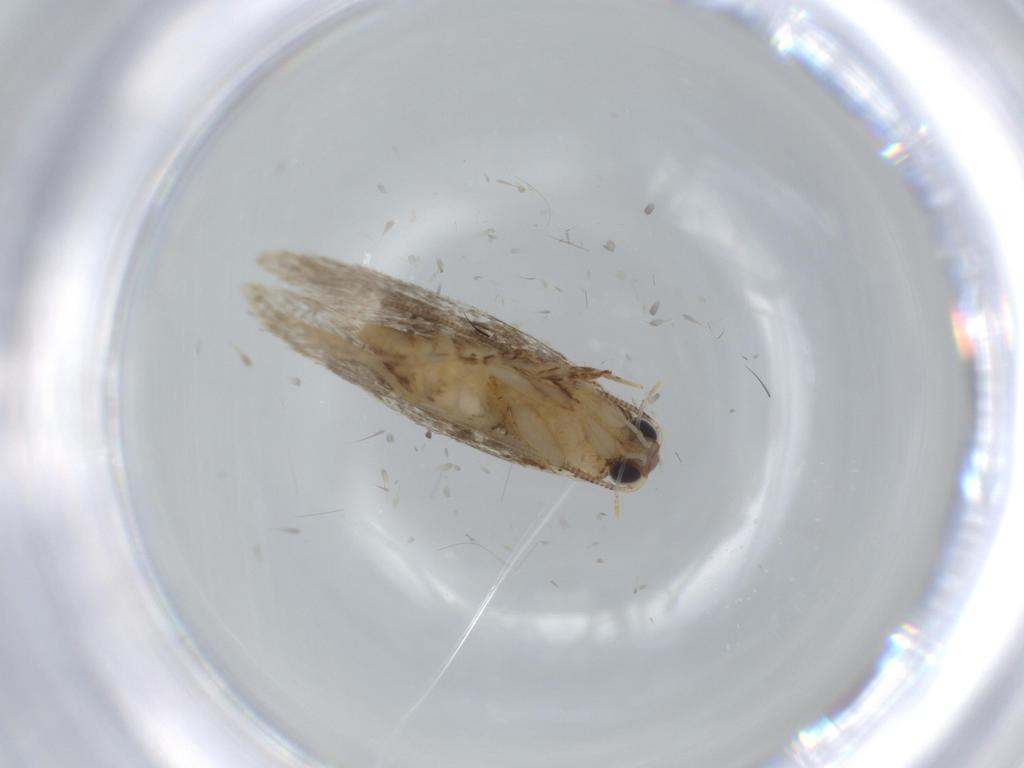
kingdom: Animalia
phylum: Arthropoda
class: Insecta
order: Lepidoptera
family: Tineidae
